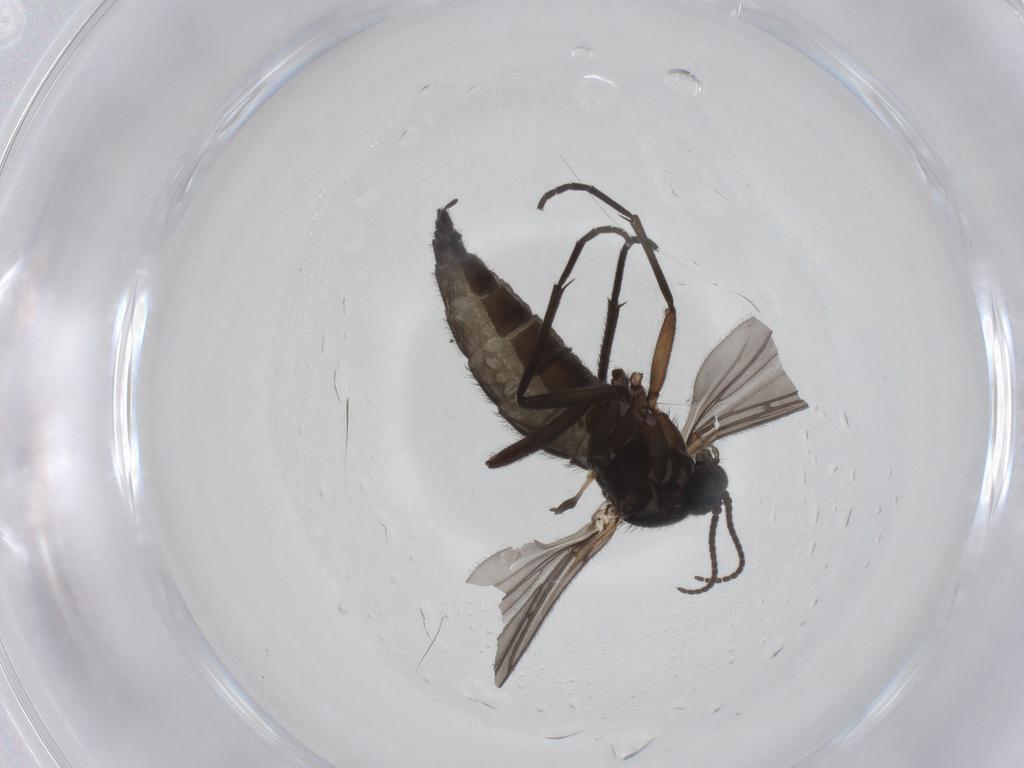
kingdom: Animalia
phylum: Arthropoda
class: Insecta
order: Diptera
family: Sciaridae
